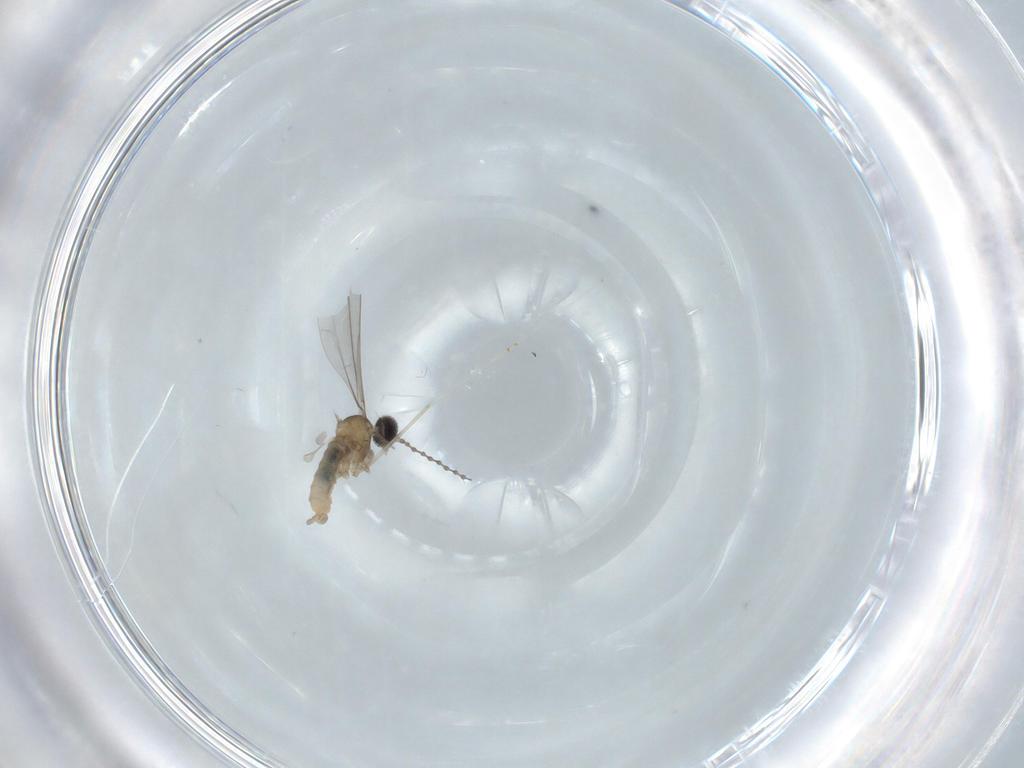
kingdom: Animalia
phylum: Arthropoda
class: Insecta
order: Diptera
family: Cecidomyiidae
